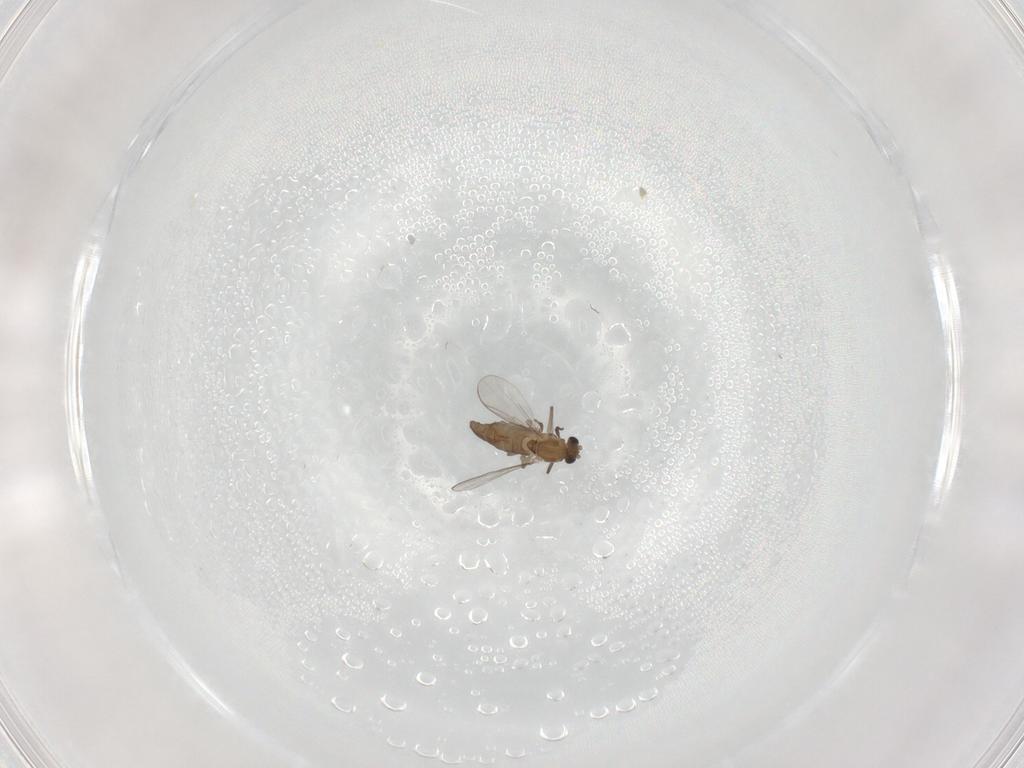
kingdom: Animalia
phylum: Arthropoda
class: Insecta
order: Diptera
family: Chironomidae
